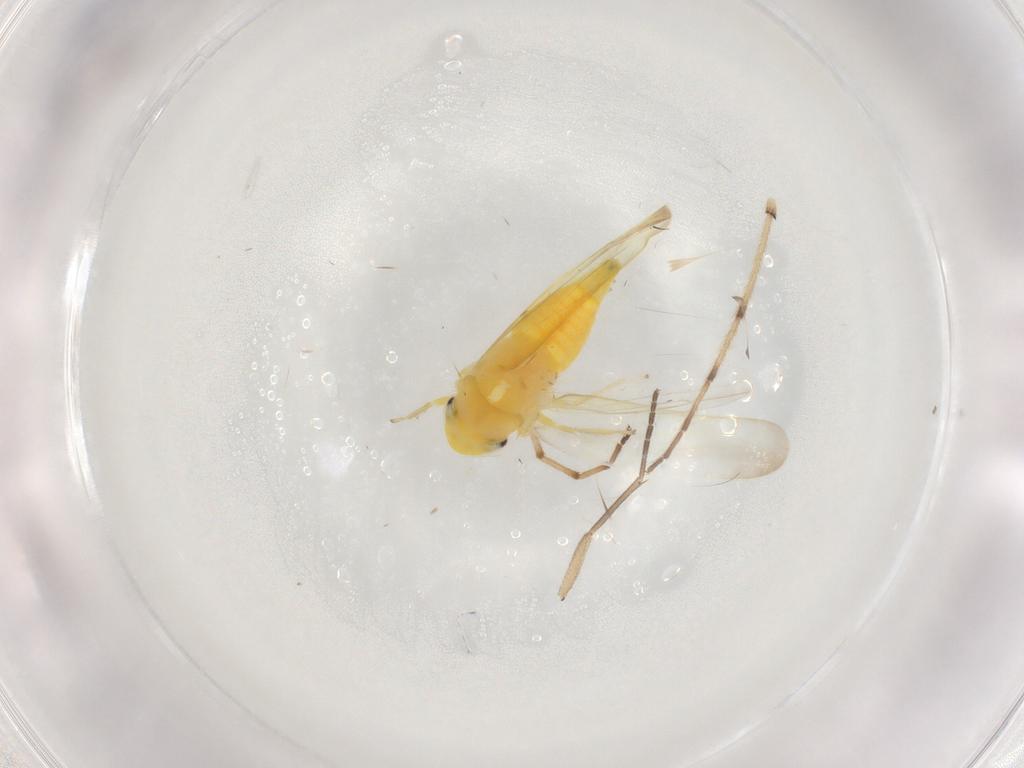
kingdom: Animalia
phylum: Arthropoda
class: Insecta
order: Hemiptera
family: Cicadellidae
